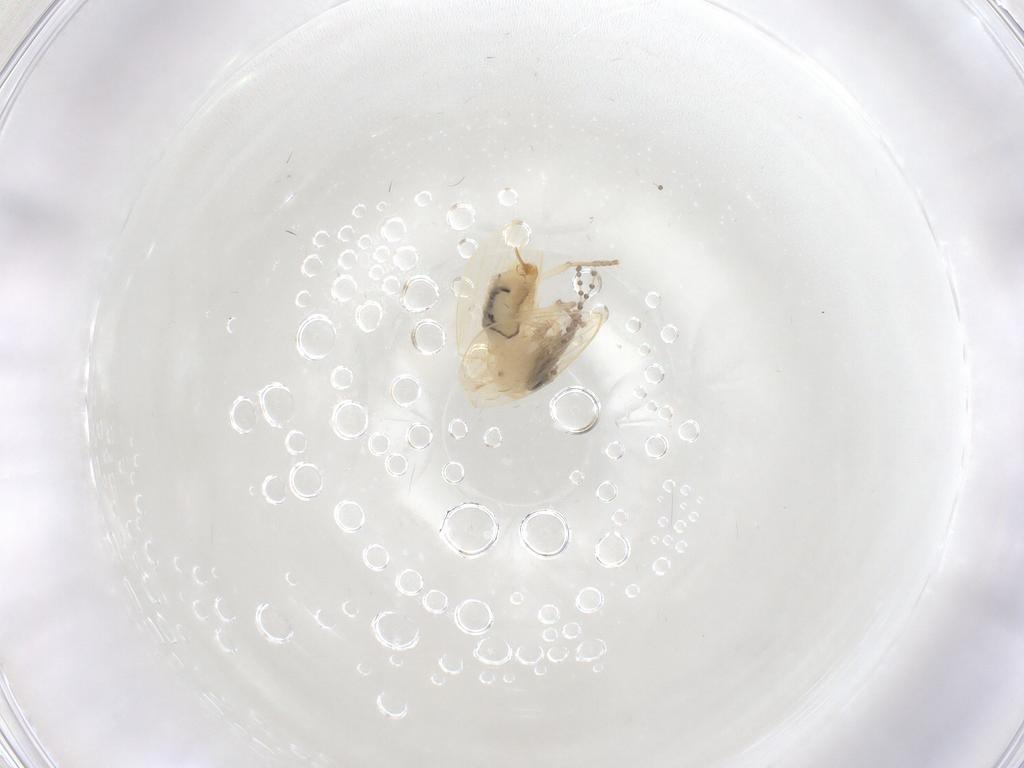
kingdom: Animalia
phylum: Arthropoda
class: Insecta
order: Diptera
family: Psychodidae
